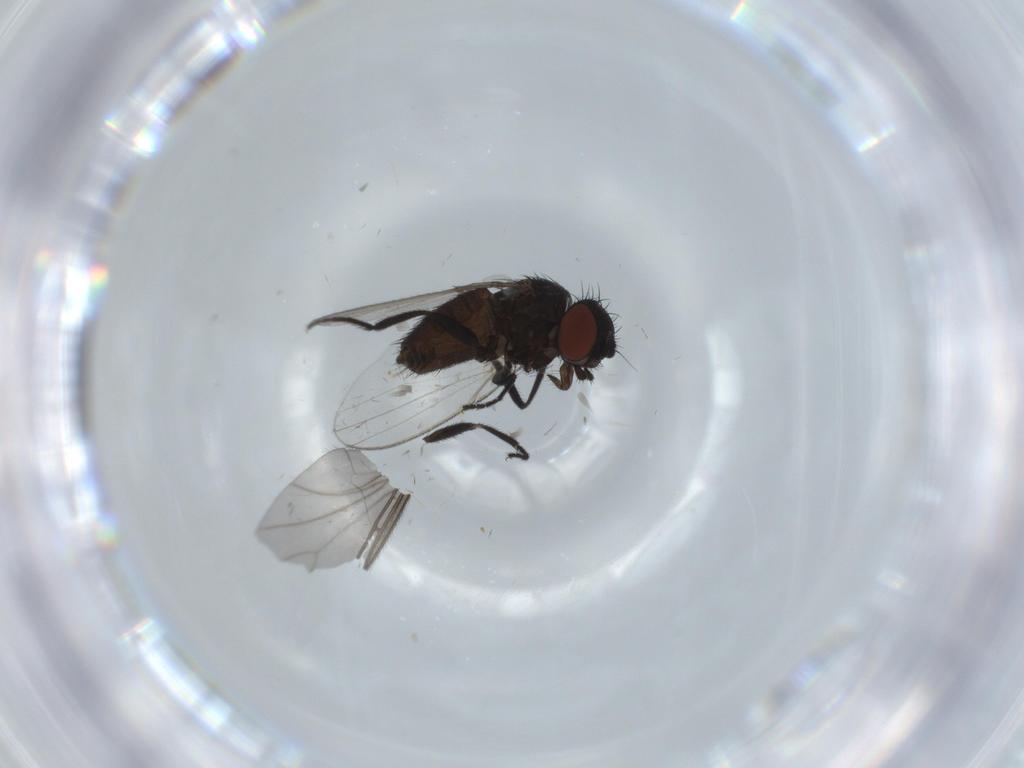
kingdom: Animalia
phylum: Arthropoda
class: Insecta
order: Diptera
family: Milichiidae
